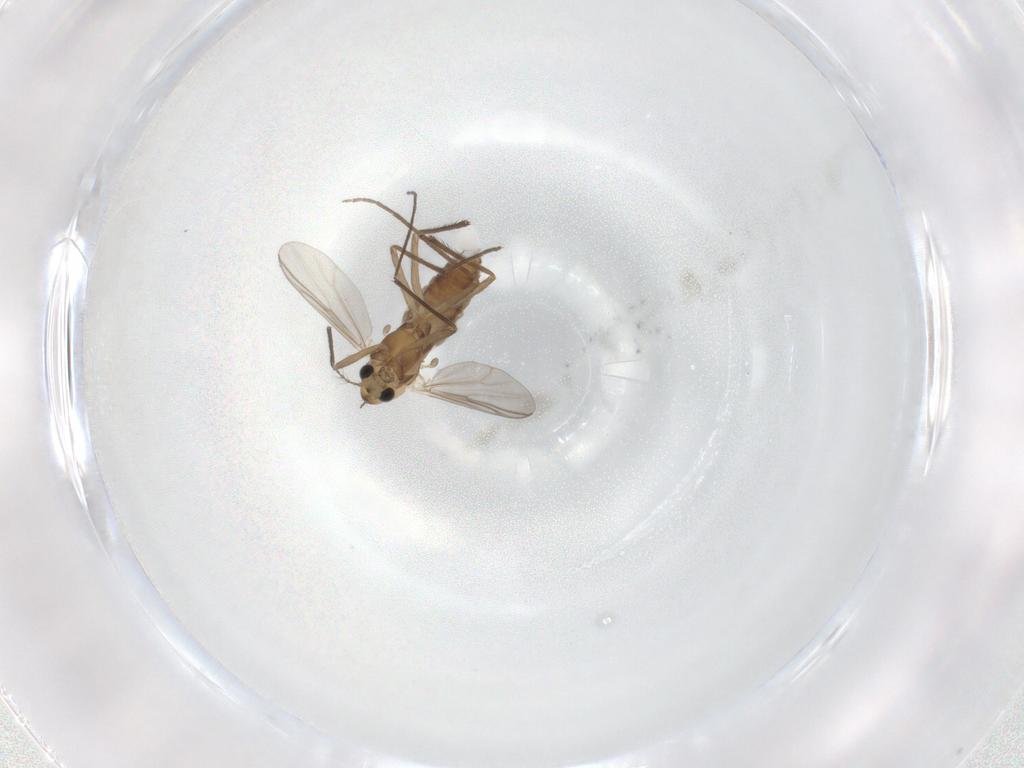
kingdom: Animalia
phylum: Arthropoda
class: Insecta
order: Diptera
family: Chironomidae
